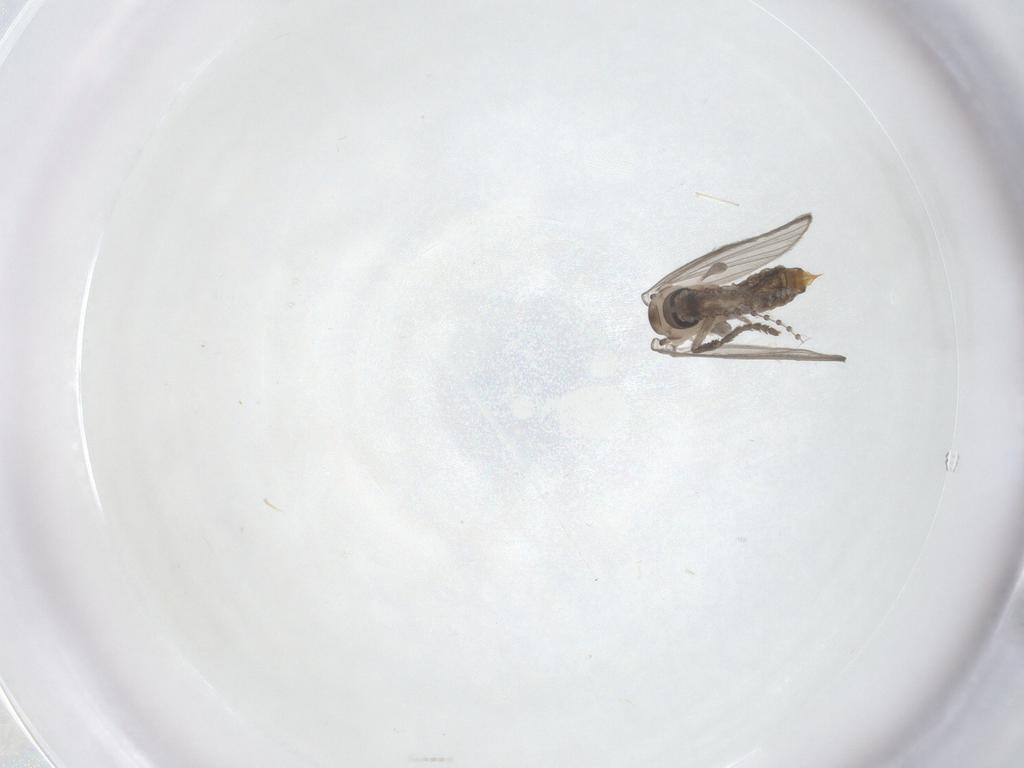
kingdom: Animalia
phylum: Arthropoda
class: Insecta
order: Diptera
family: Psychodidae
